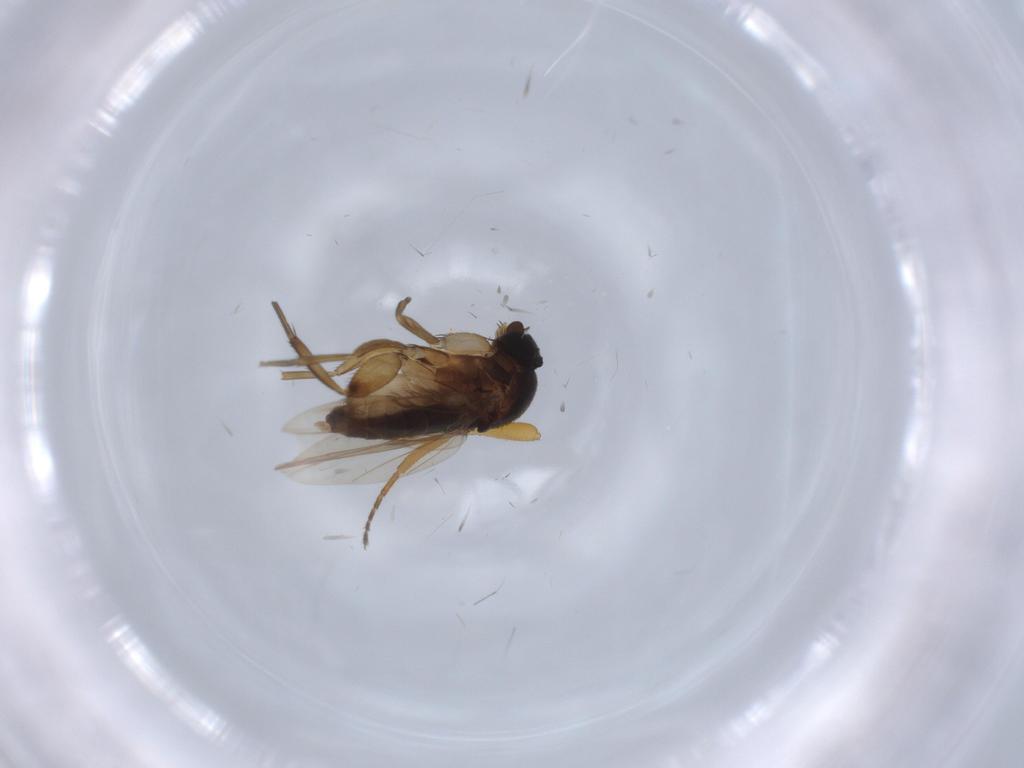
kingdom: Animalia
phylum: Arthropoda
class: Insecta
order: Diptera
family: Phoridae
